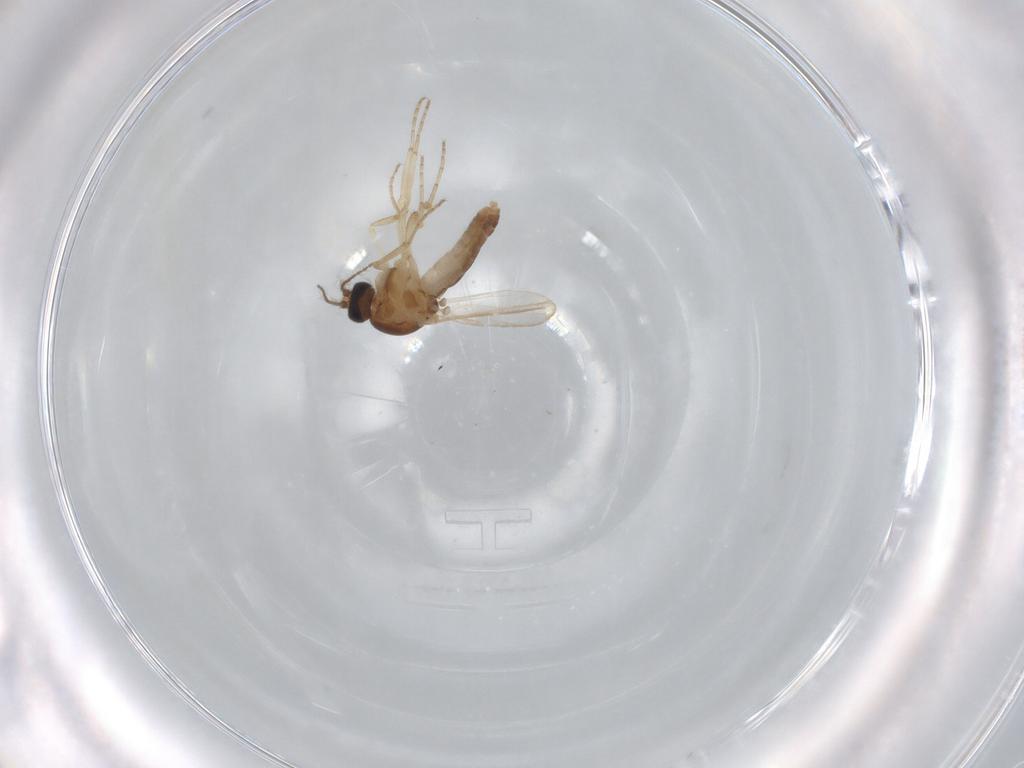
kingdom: Animalia
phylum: Arthropoda
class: Insecta
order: Diptera
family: Ceratopogonidae
